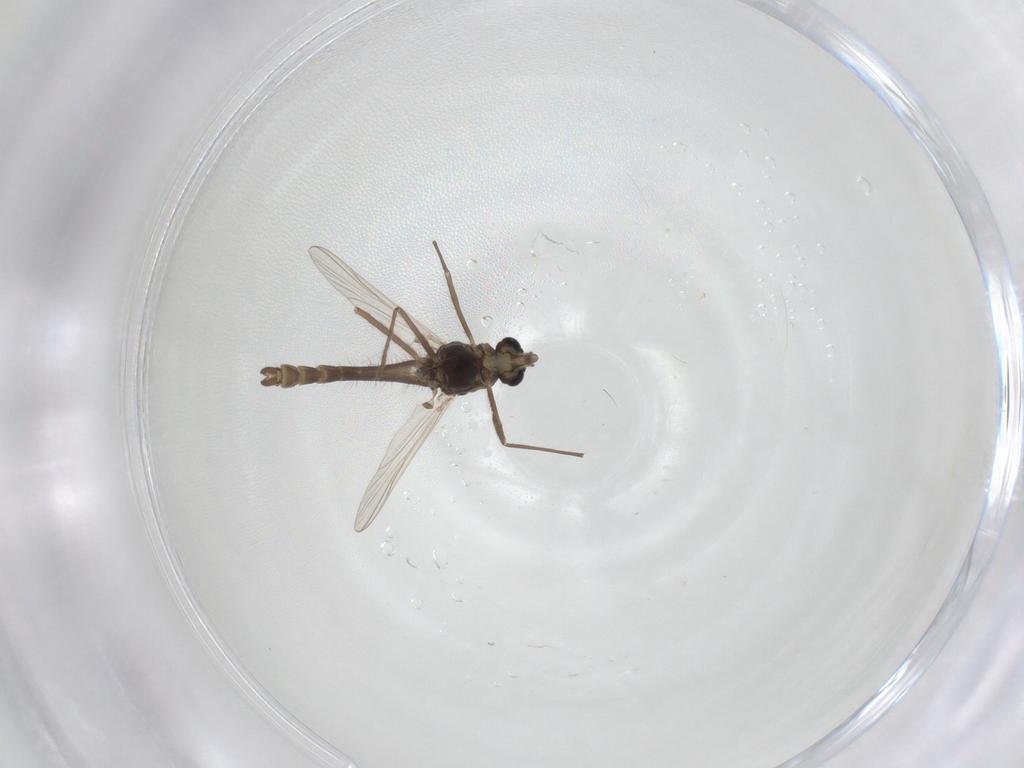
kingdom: Animalia
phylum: Arthropoda
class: Insecta
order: Diptera
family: Chironomidae
